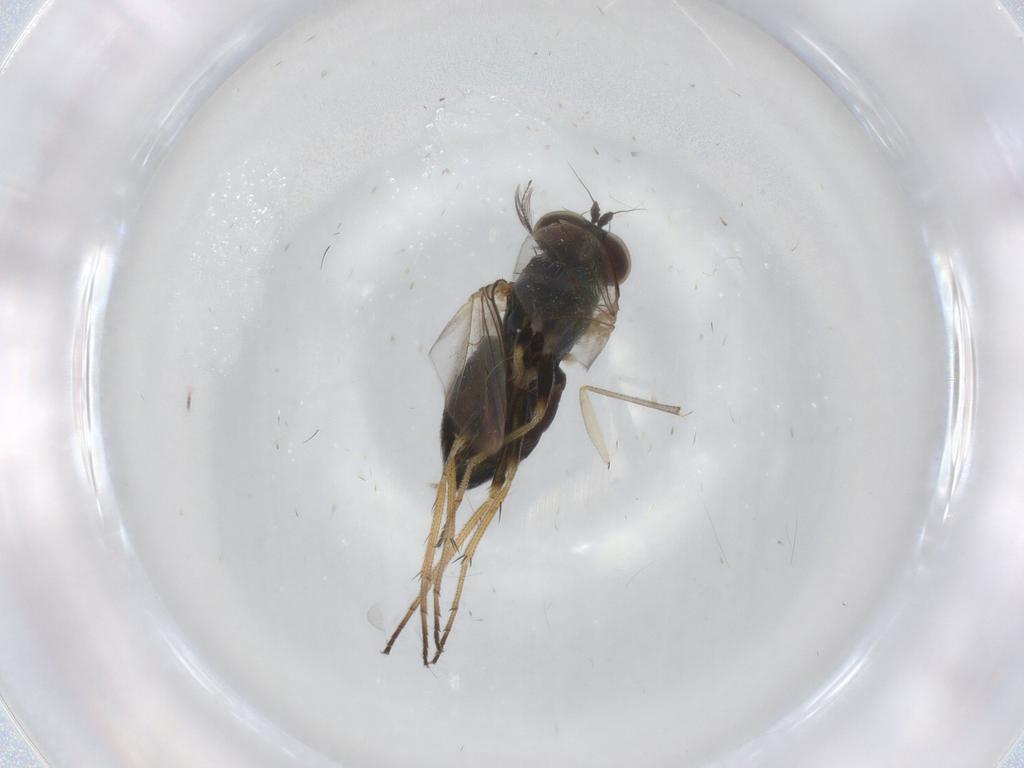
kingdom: Animalia
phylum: Arthropoda
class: Insecta
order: Diptera
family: Ceratopogonidae
